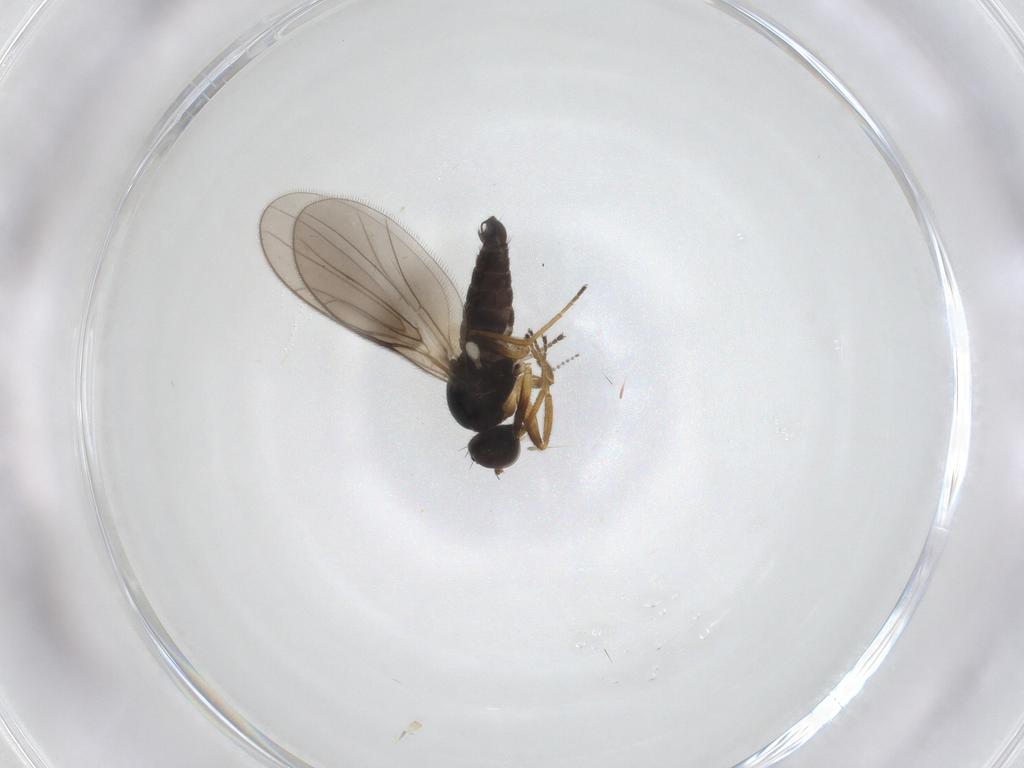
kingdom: Animalia
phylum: Arthropoda
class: Insecta
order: Diptera
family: Hybotidae
